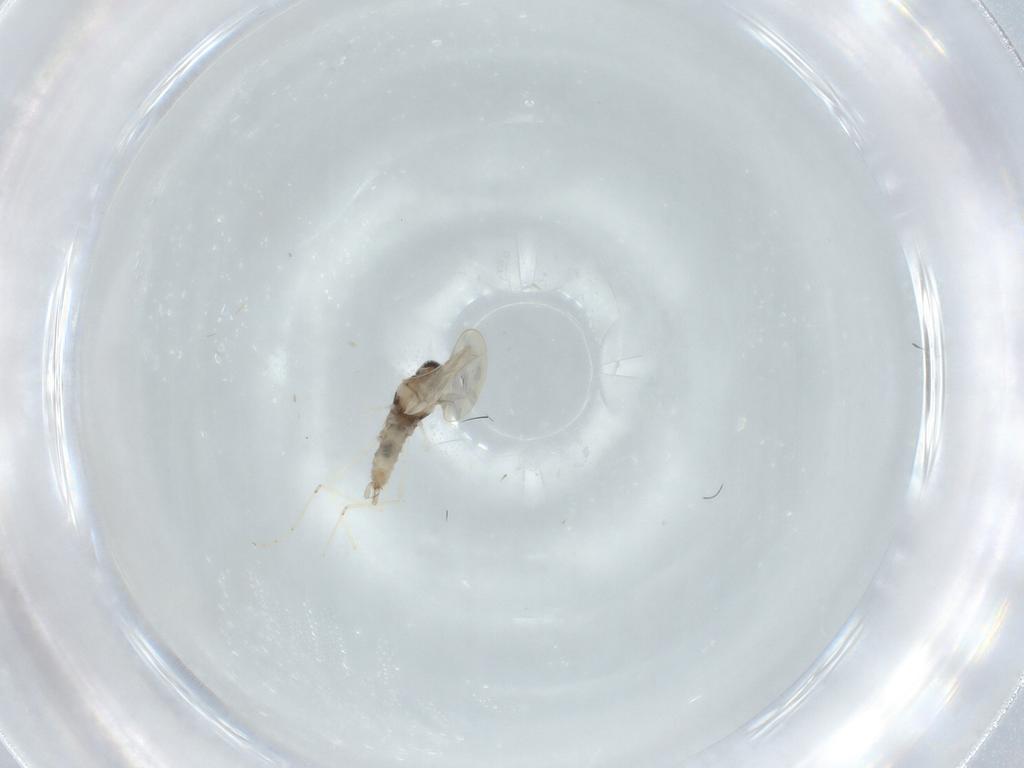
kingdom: Animalia
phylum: Arthropoda
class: Insecta
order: Diptera
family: Cecidomyiidae
